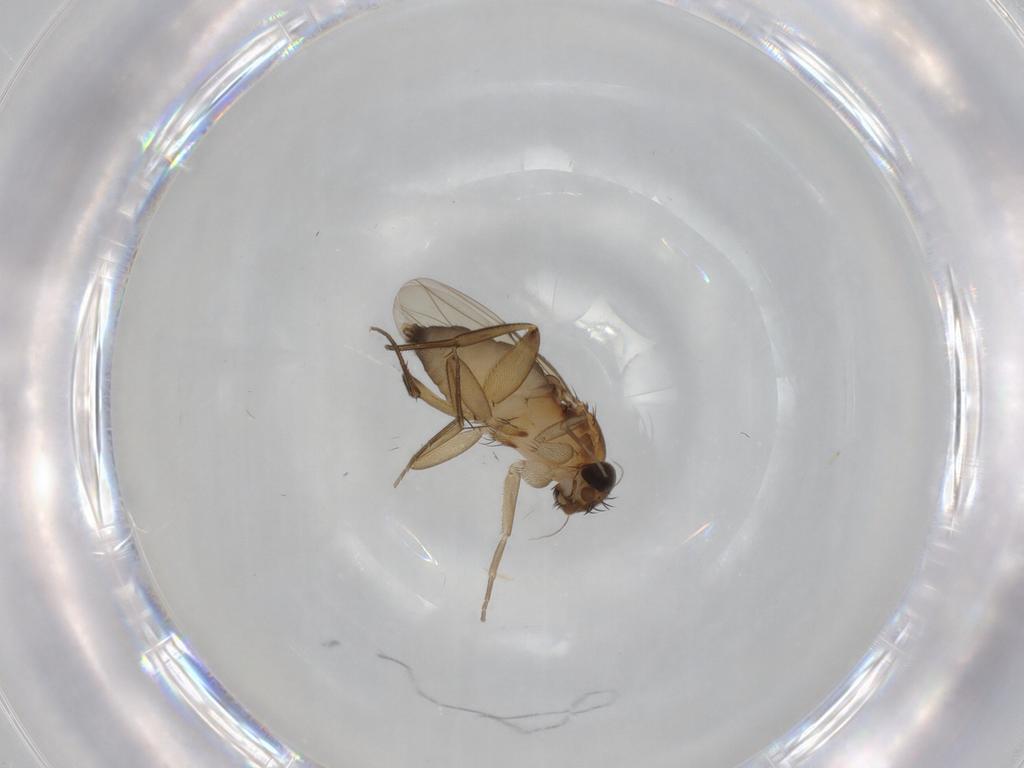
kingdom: Animalia
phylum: Arthropoda
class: Insecta
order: Diptera
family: Phoridae
